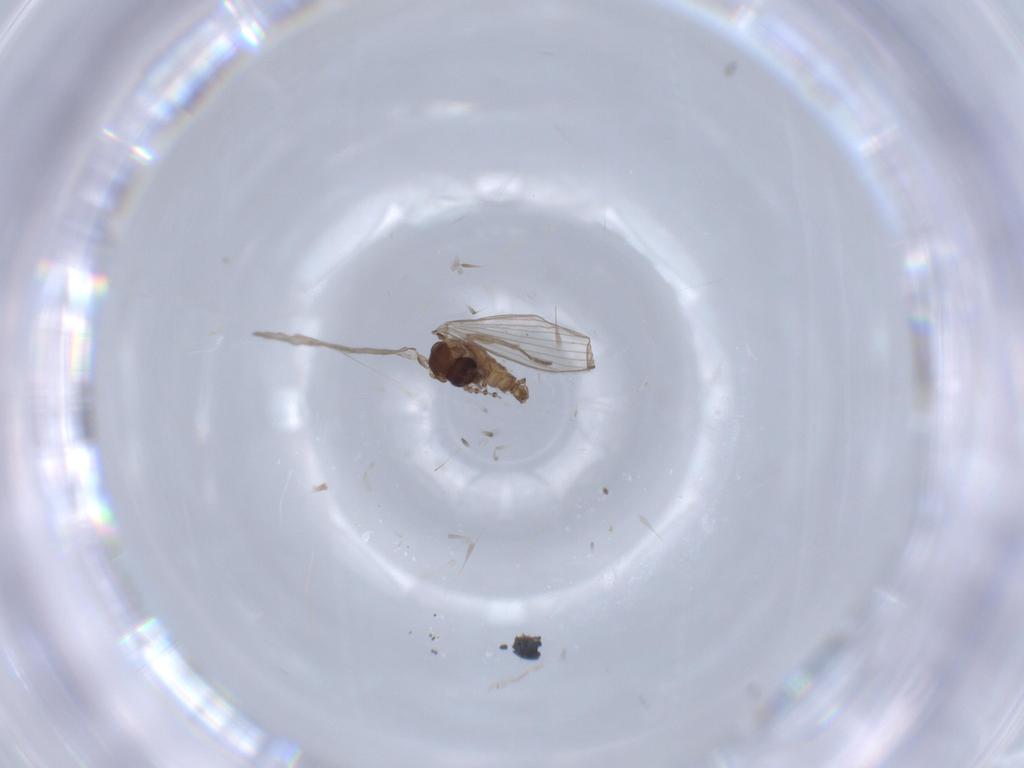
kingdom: Animalia
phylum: Arthropoda
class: Insecta
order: Diptera
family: Psychodidae
